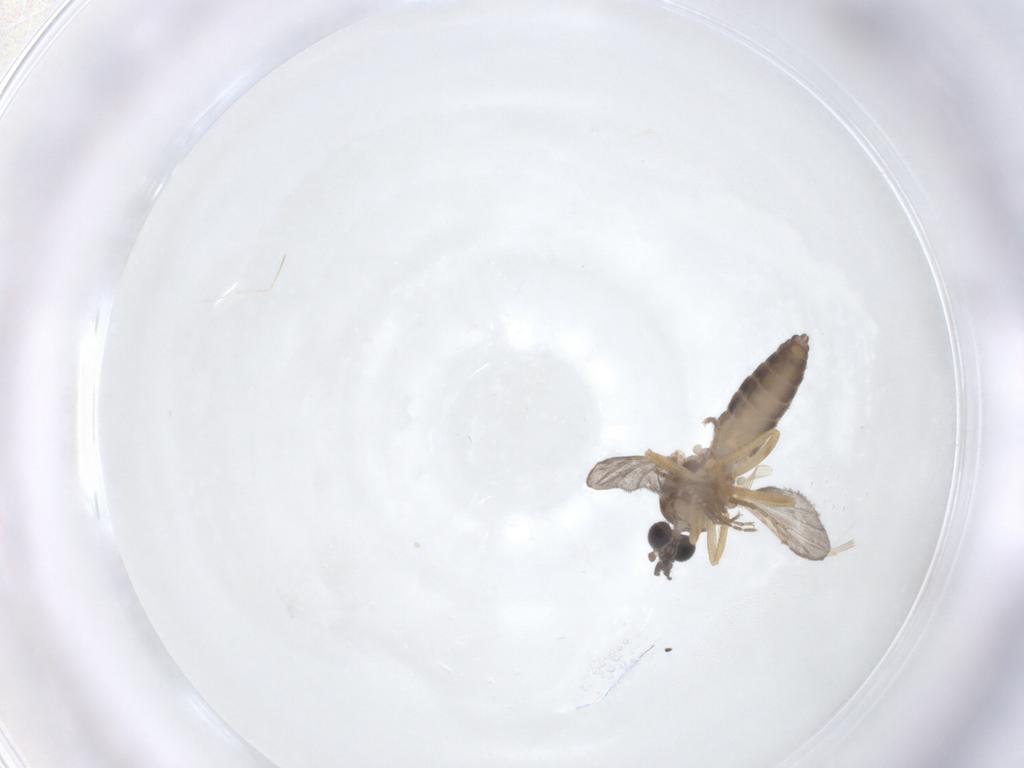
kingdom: Animalia
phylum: Arthropoda
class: Insecta
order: Diptera
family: Ceratopogonidae
